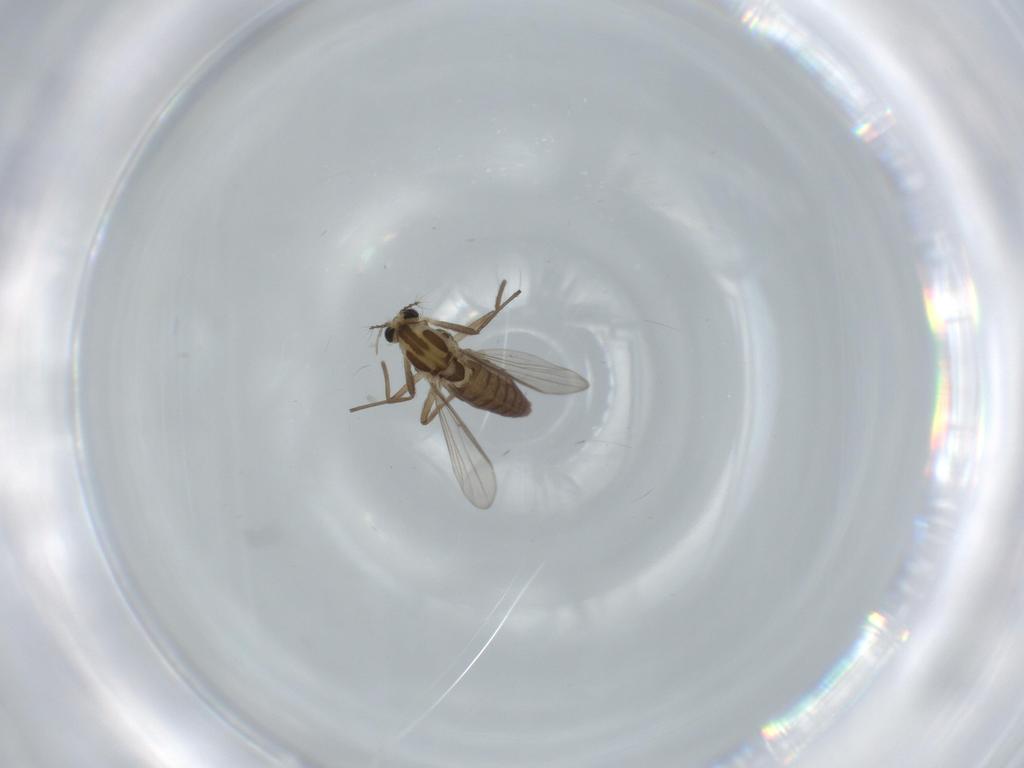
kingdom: Animalia
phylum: Arthropoda
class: Insecta
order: Diptera
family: Chironomidae
